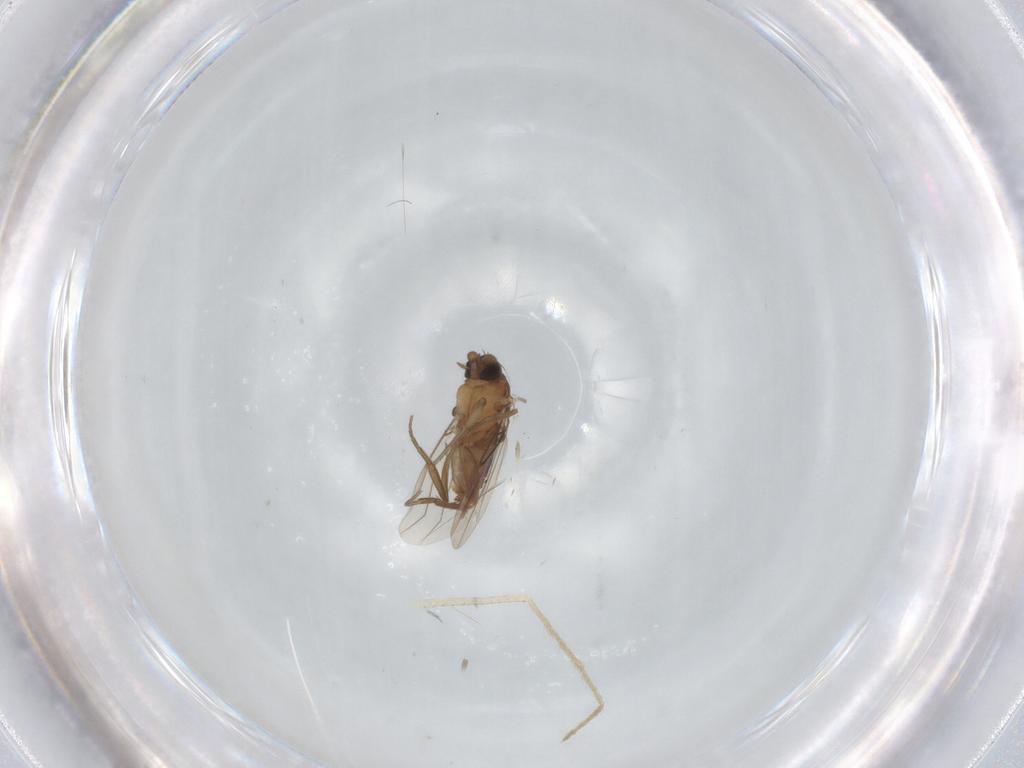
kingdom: Animalia
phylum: Arthropoda
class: Insecta
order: Diptera
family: Phoridae
